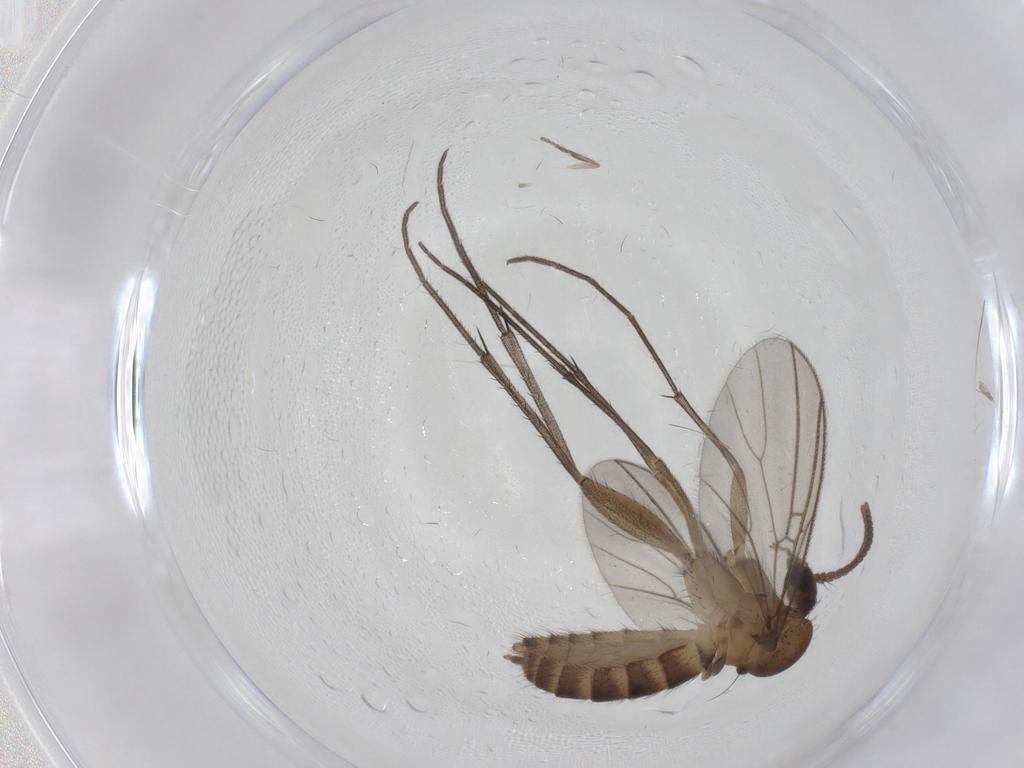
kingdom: Animalia
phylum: Arthropoda
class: Insecta
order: Diptera
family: Mycetophilidae
